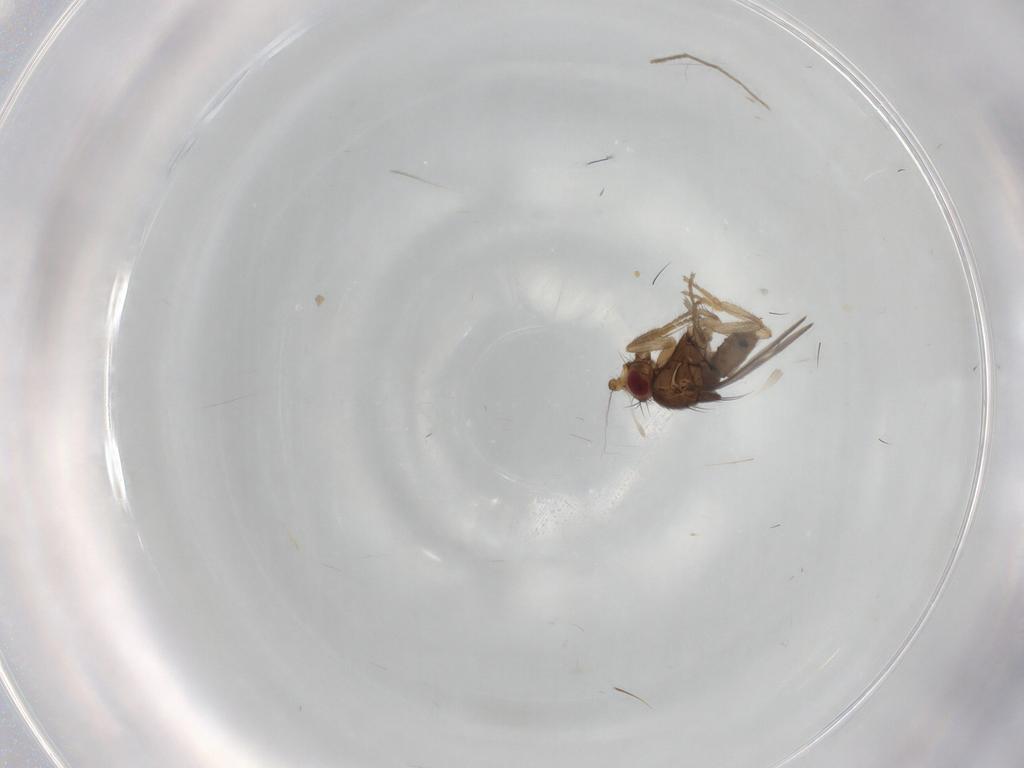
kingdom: Animalia
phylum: Arthropoda
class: Insecta
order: Diptera
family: Sphaeroceridae
